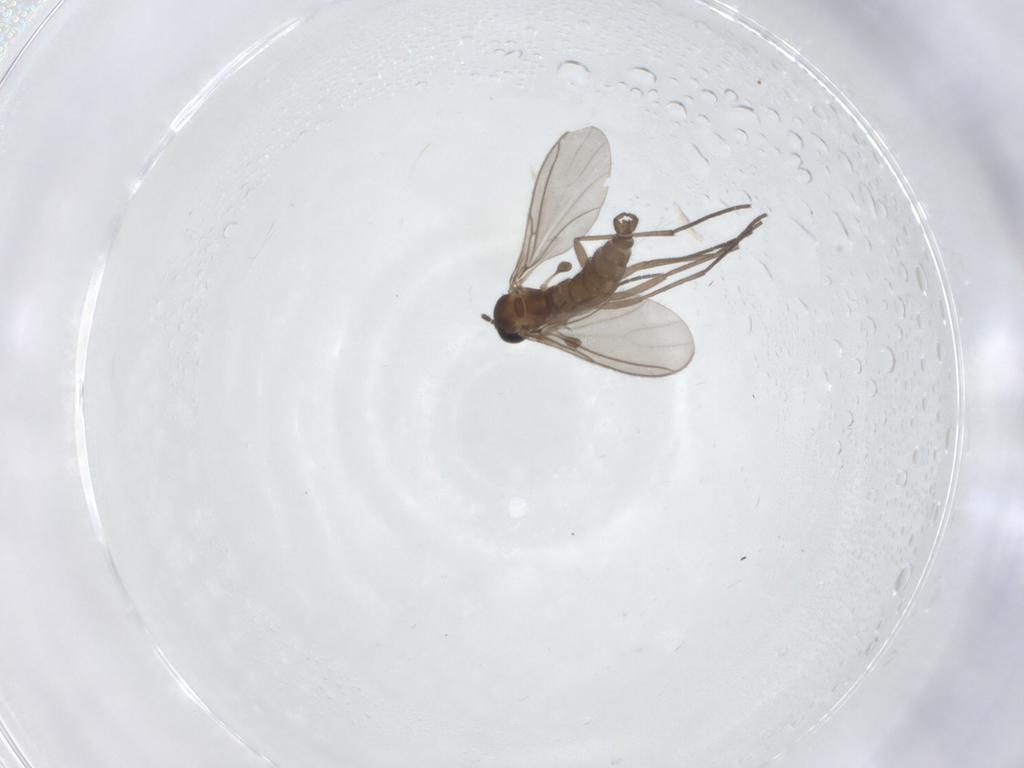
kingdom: Animalia
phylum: Arthropoda
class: Insecta
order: Diptera
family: Sciaridae
